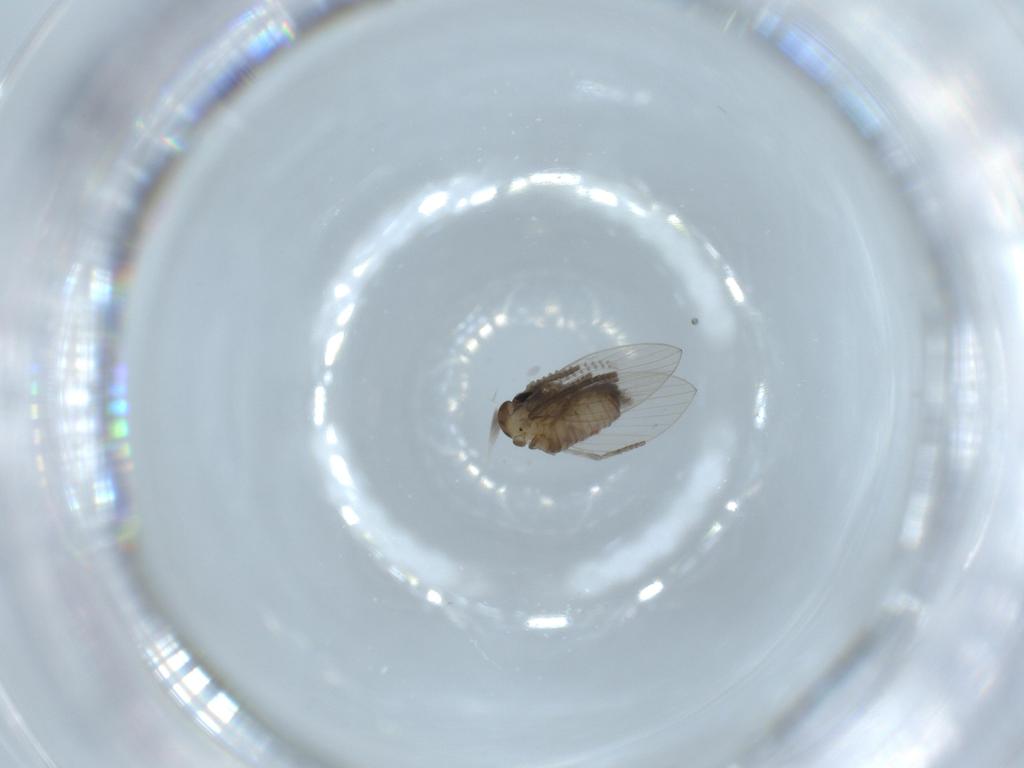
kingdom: Animalia
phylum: Arthropoda
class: Insecta
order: Diptera
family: Psychodidae
